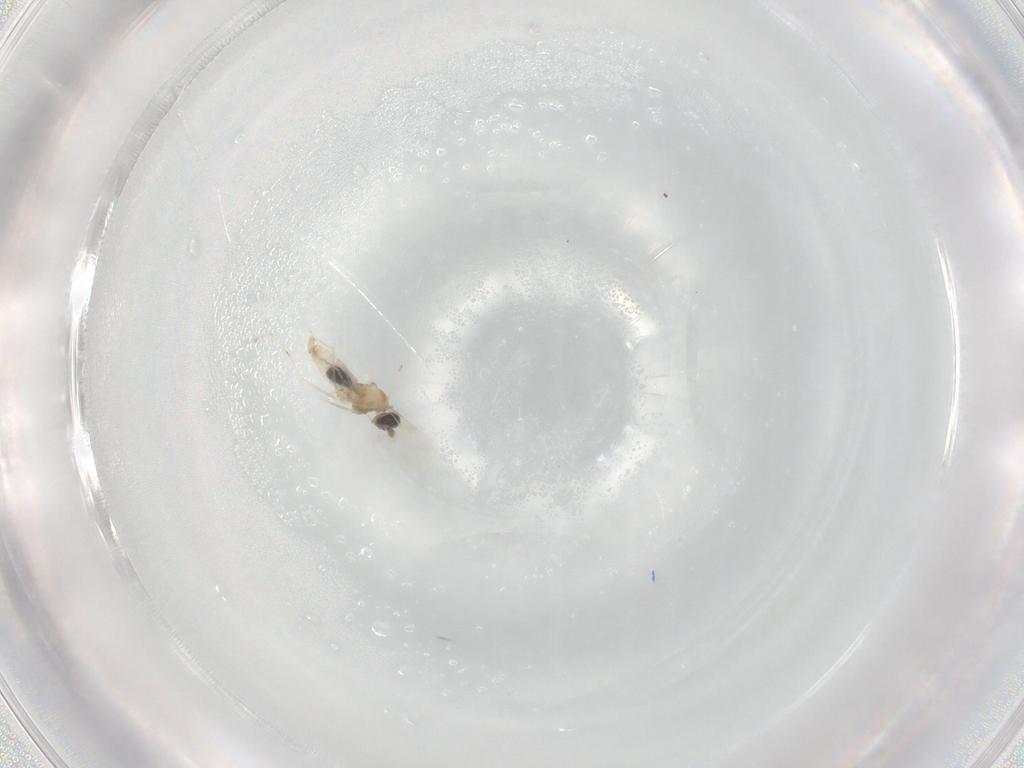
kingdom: Animalia
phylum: Arthropoda
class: Insecta
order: Diptera
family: Cecidomyiidae
